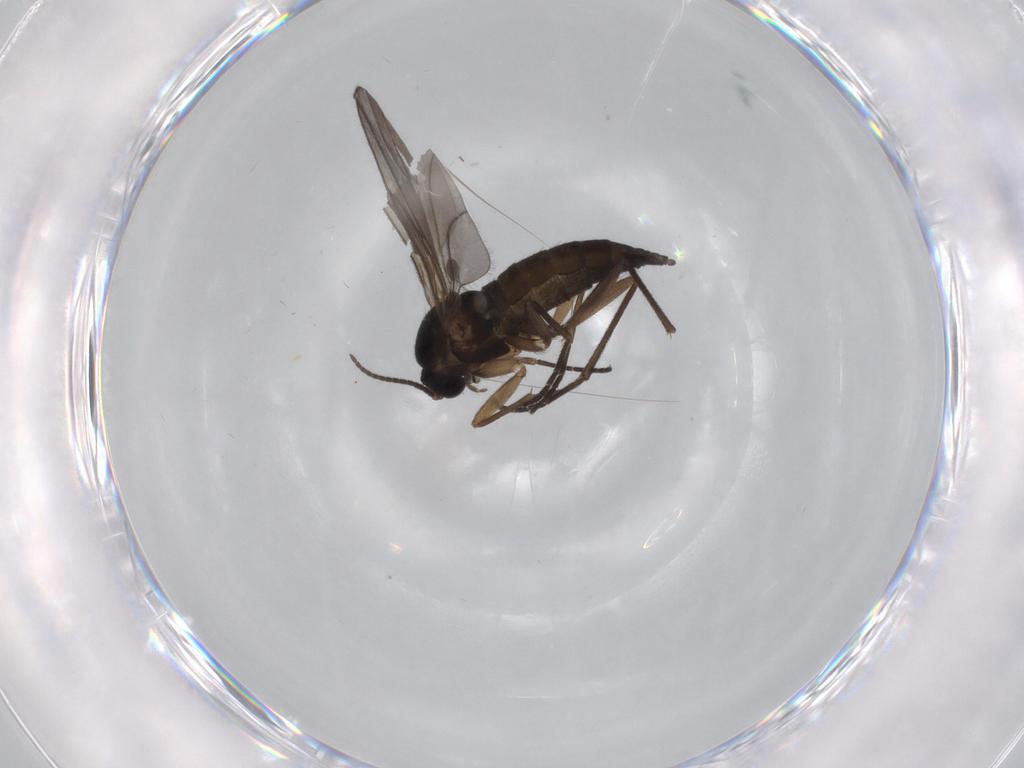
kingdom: Animalia
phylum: Arthropoda
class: Insecta
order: Diptera
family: Sciaridae
